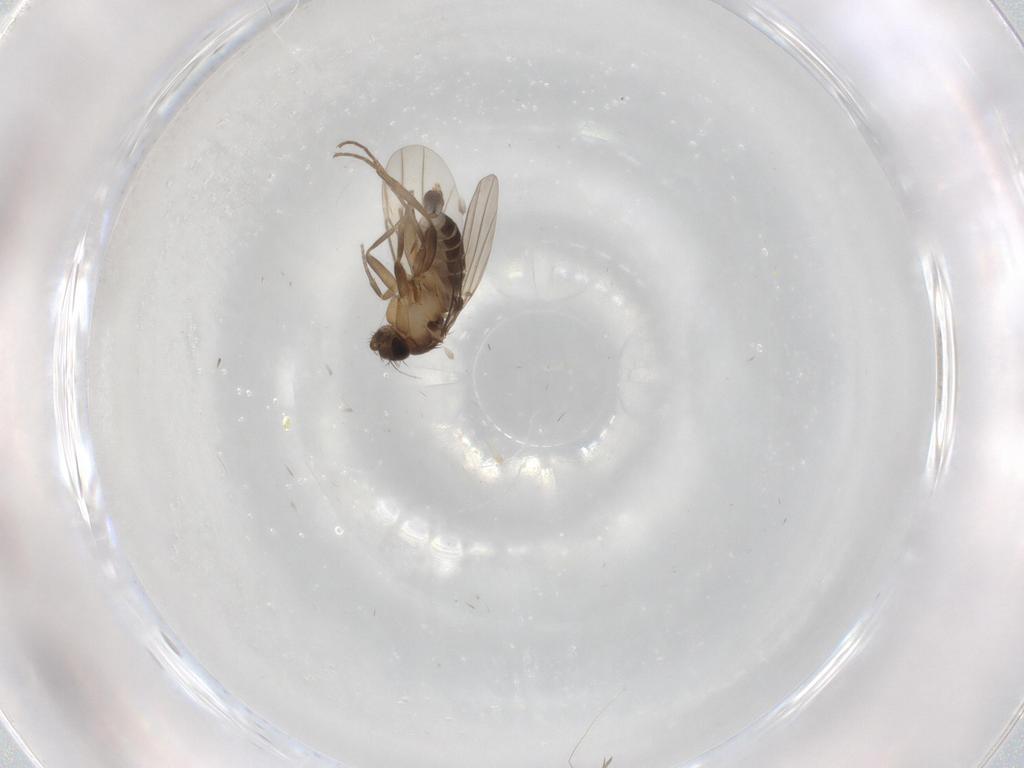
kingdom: Animalia
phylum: Arthropoda
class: Insecta
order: Diptera
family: Phoridae
